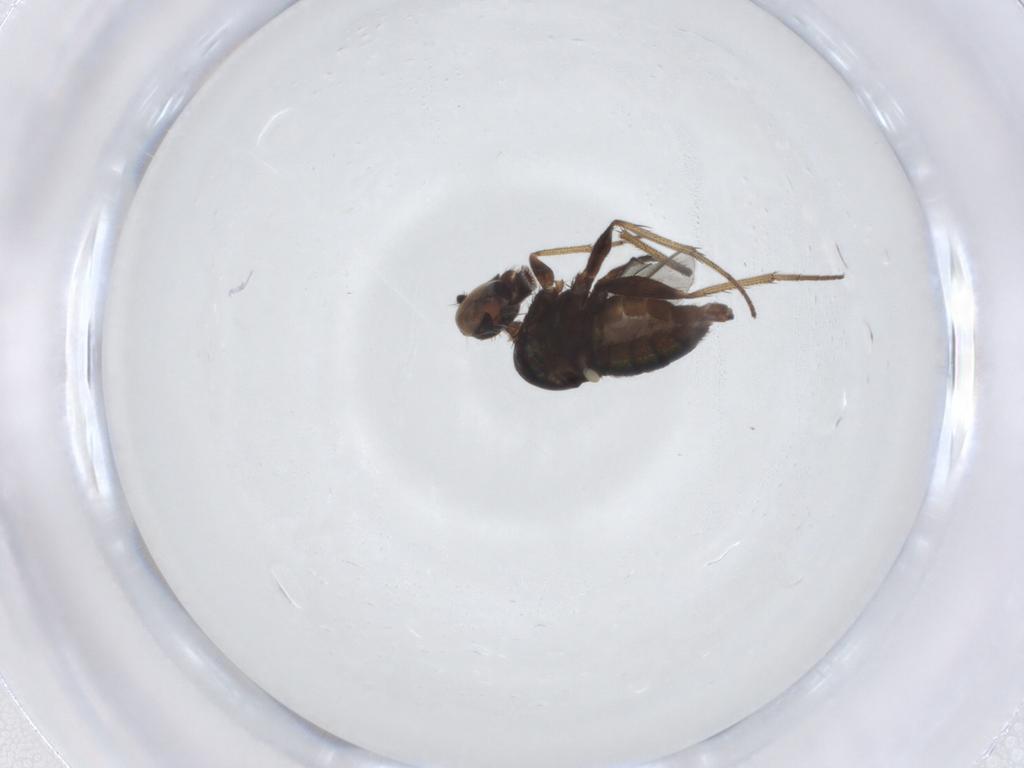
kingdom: Animalia
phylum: Arthropoda
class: Insecta
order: Diptera
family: Dolichopodidae
